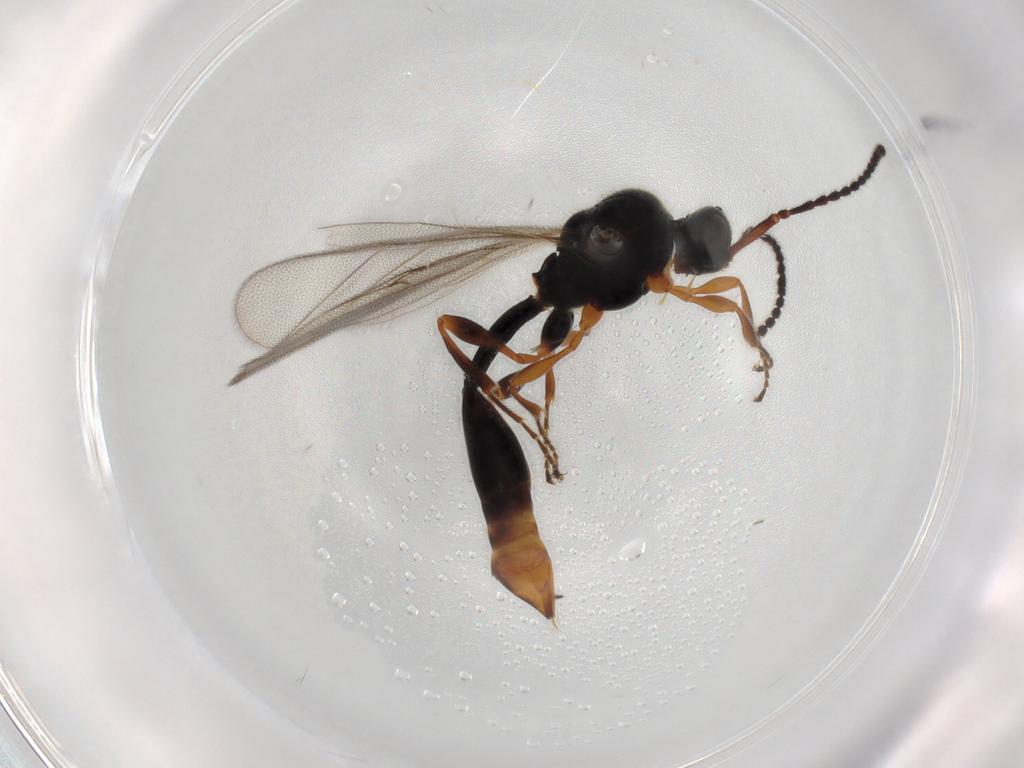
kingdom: Animalia
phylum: Arthropoda
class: Insecta
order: Hymenoptera
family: Diapriidae
